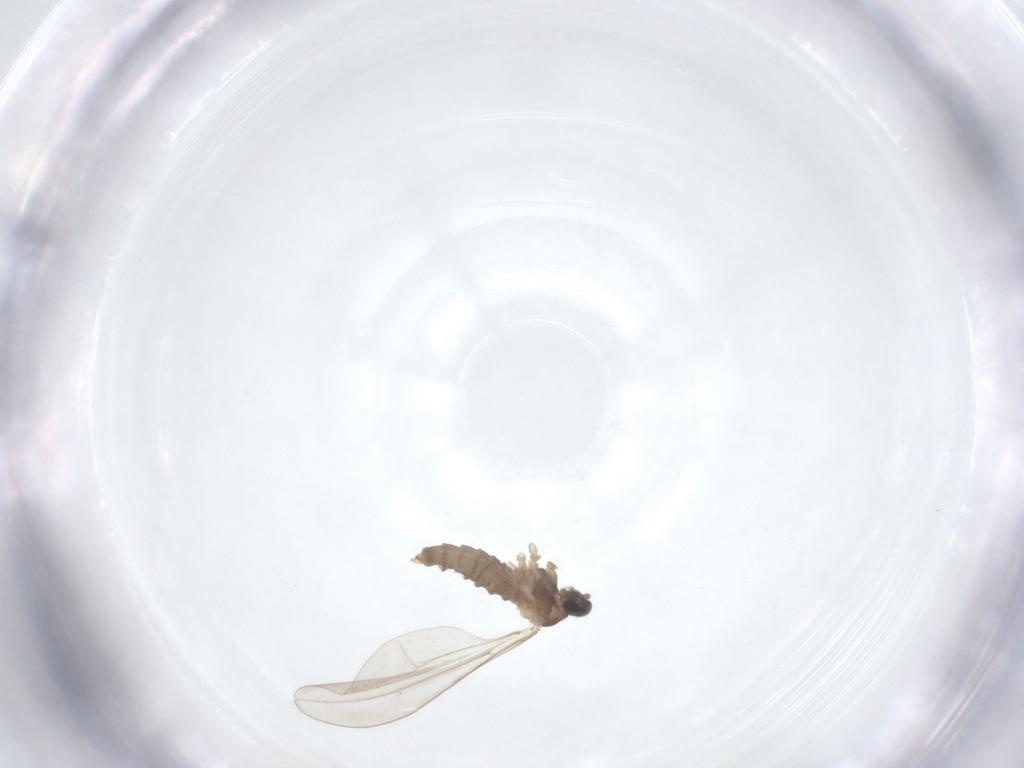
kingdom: Animalia
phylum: Arthropoda
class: Insecta
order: Diptera
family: Cecidomyiidae
